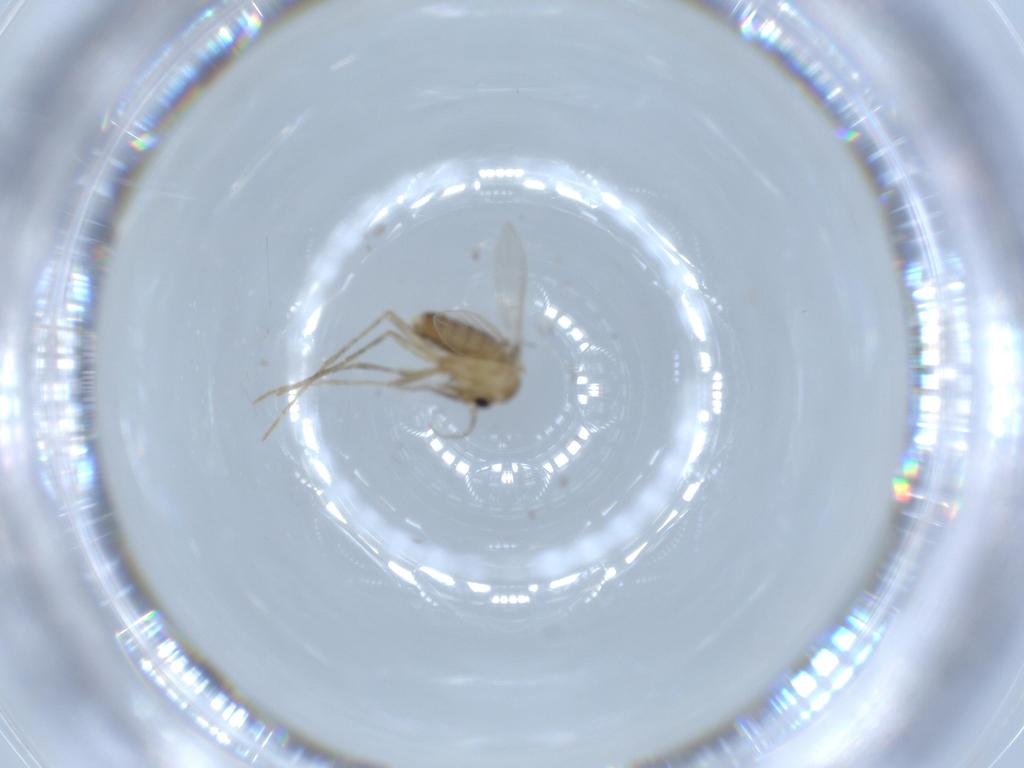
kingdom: Animalia
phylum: Arthropoda
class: Insecta
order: Diptera
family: Psychodidae
